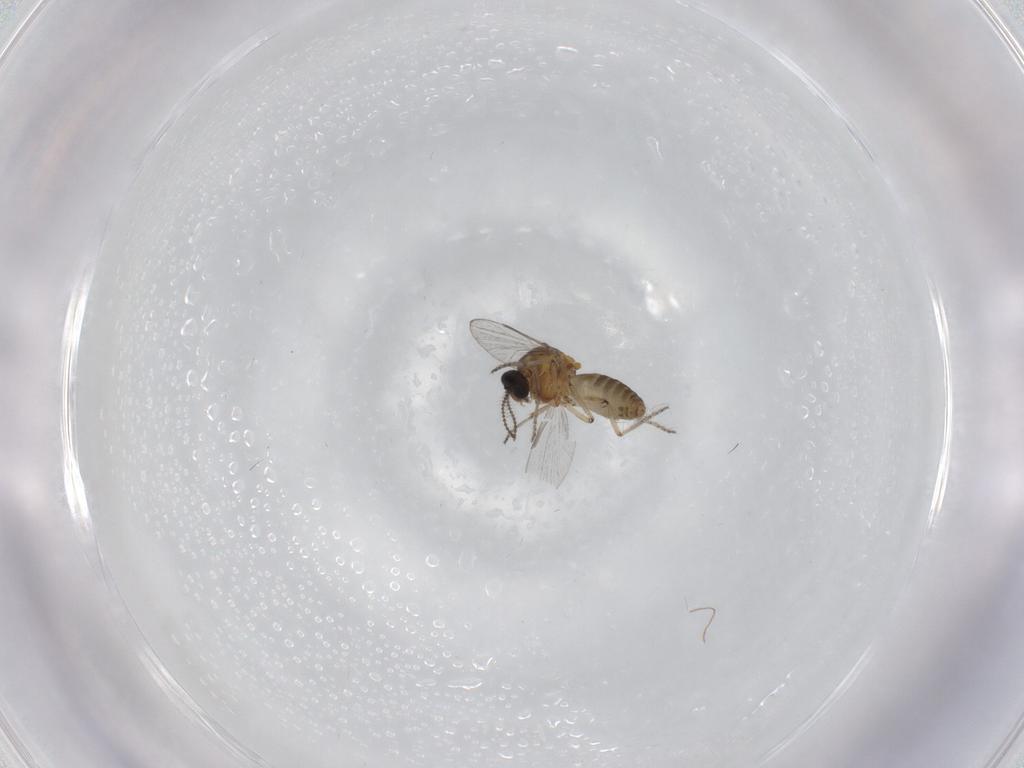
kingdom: Animalia
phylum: Arthropoda
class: Insecta
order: Diptera
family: Ceratopogonidae
